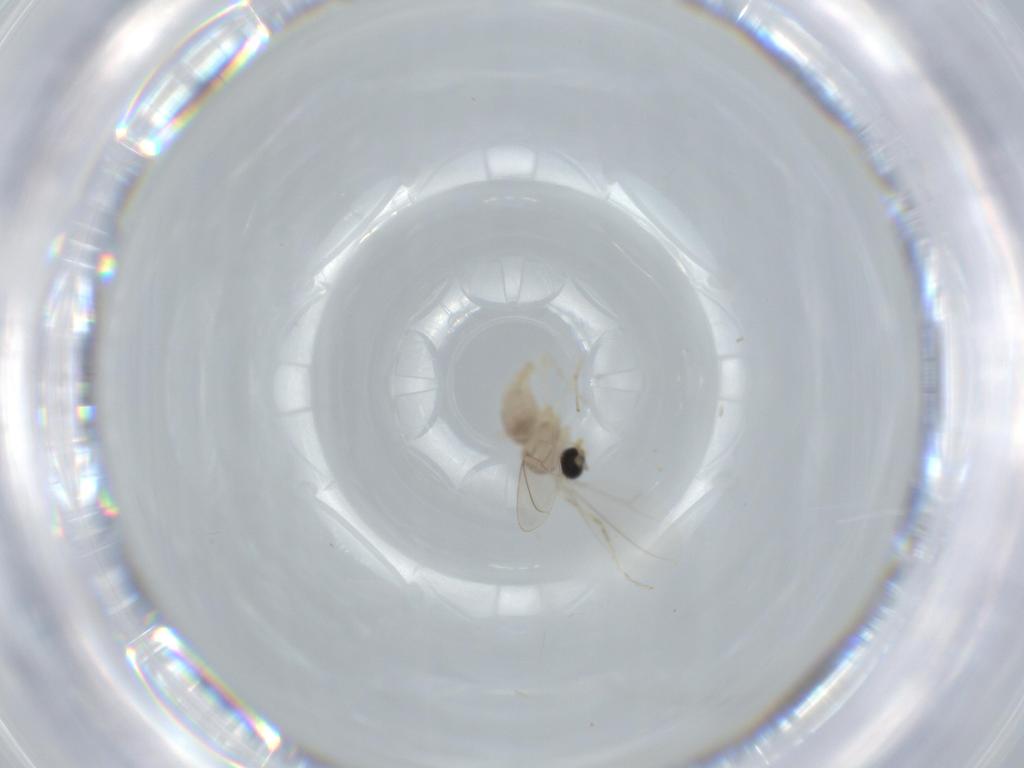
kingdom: Animalia
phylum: Arthropoda
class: Insecta
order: Diptera
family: Cecidomyiidae
